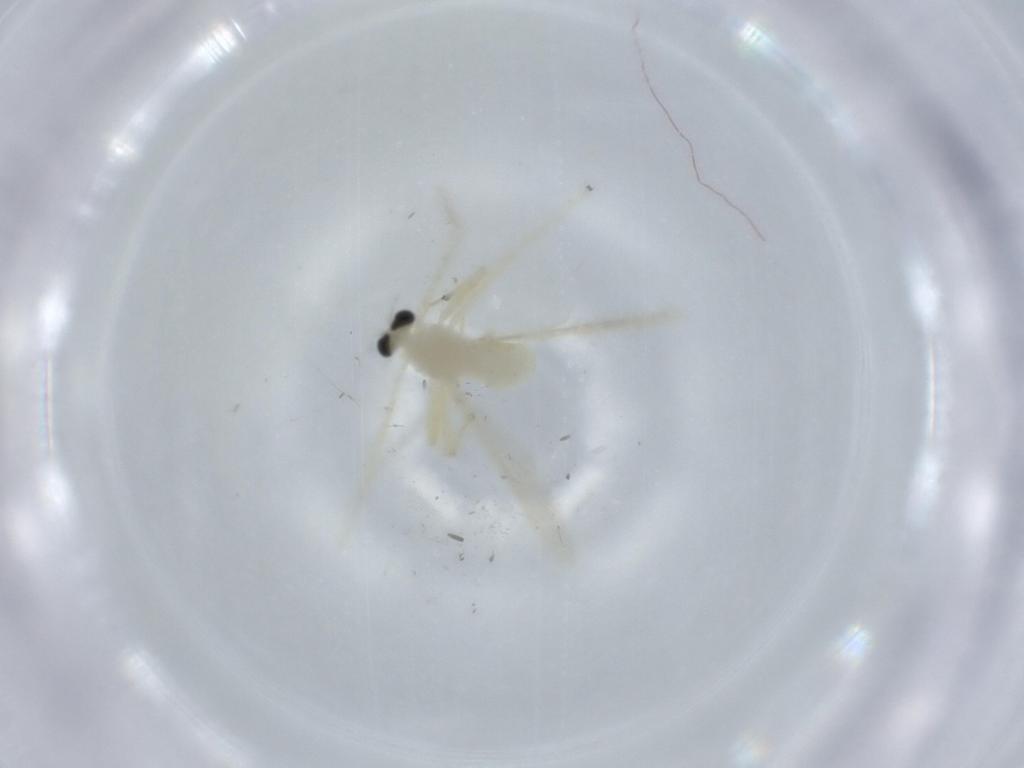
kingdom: Animalia
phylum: Arthropoda
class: Insecta
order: Diptera
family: Chironomidae
